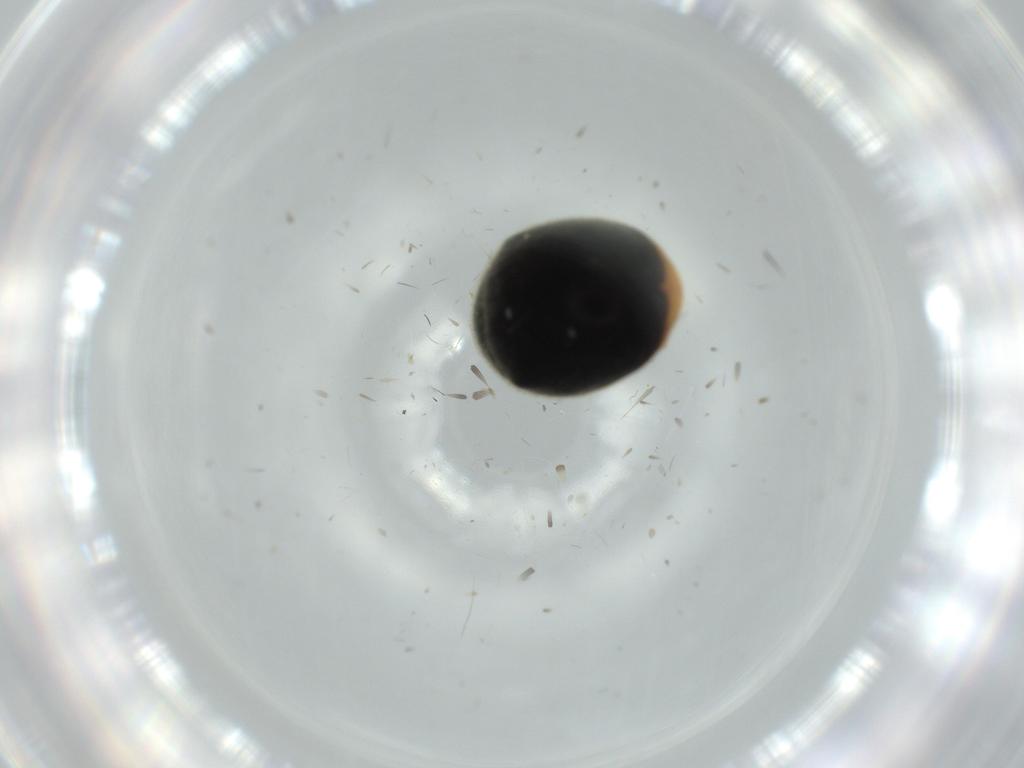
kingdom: Animalia
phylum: Arthropoda
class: Insecta
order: Coleoptera
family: Coccinellidae
